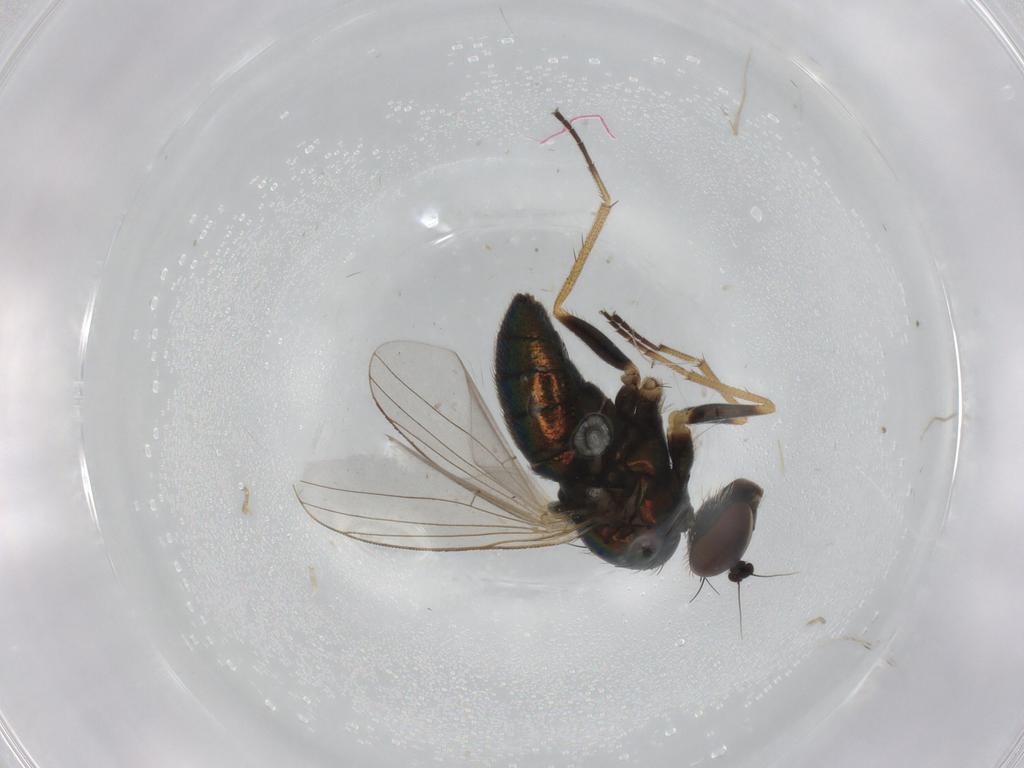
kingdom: Animalia
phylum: Arthropoda
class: Insecta
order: Diptera
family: Dolichopodidae
